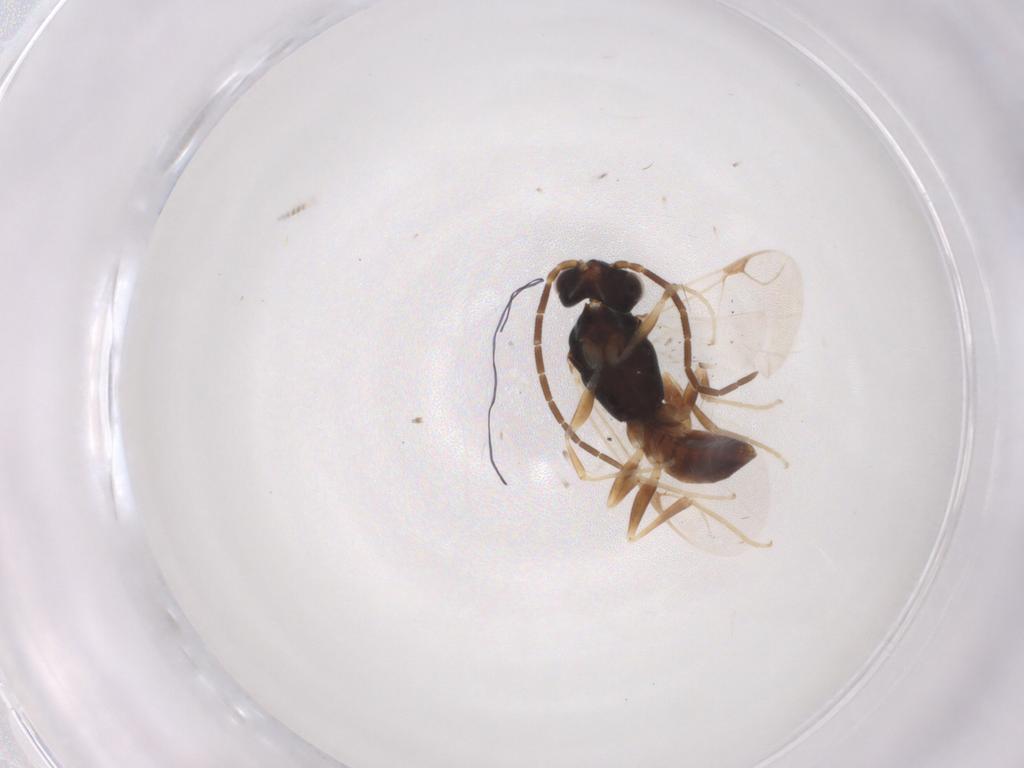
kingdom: Animalia
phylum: Arthropoda
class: Insecta
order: Hymenoptera
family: Dryinidae
